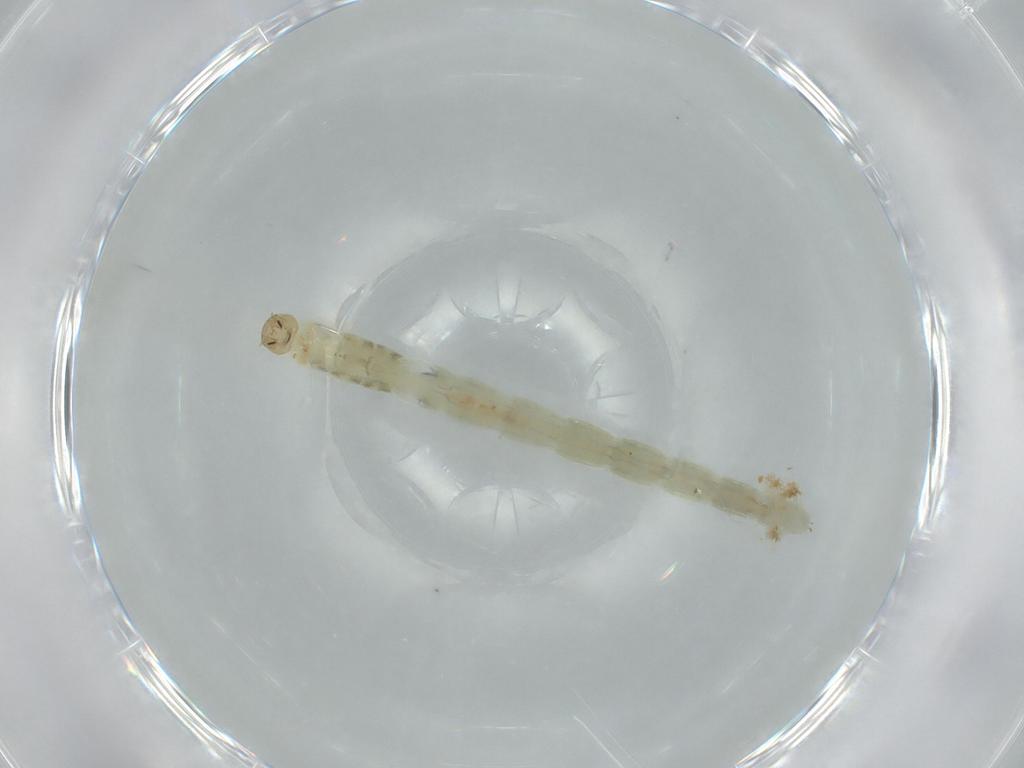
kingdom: Animalia
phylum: Arthropoda
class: Insecta
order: Diptera
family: Chironomidae
